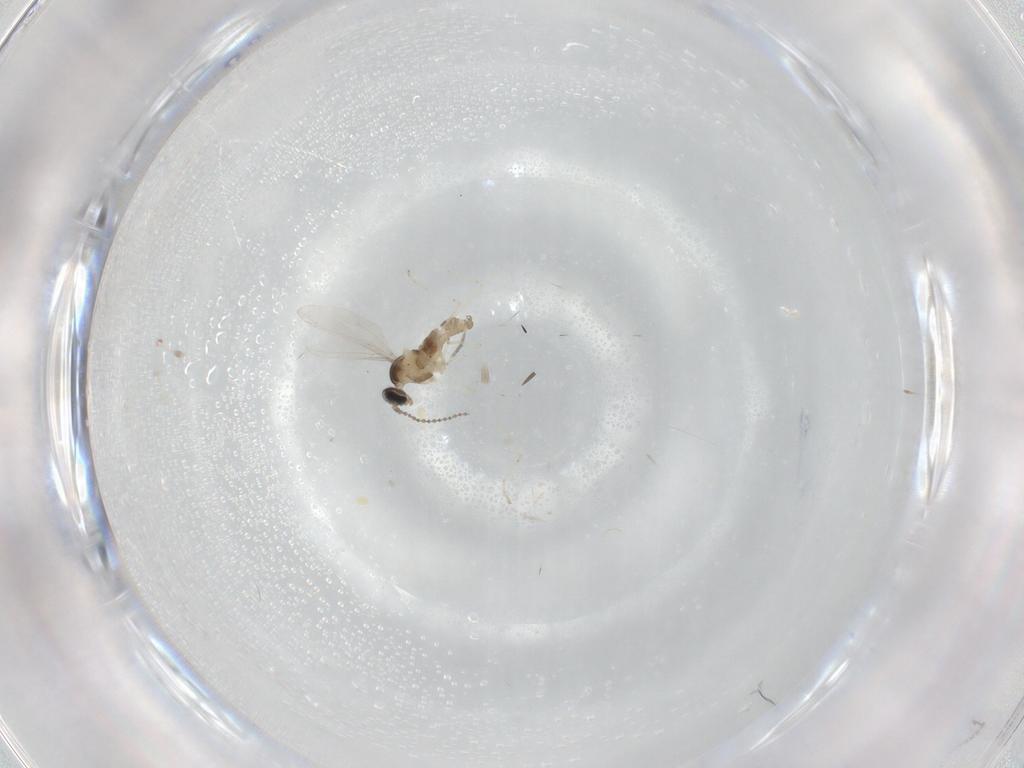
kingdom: Animalia
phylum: Arthropoda
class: Insecta
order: Diptera
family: Cecidomyiidae
